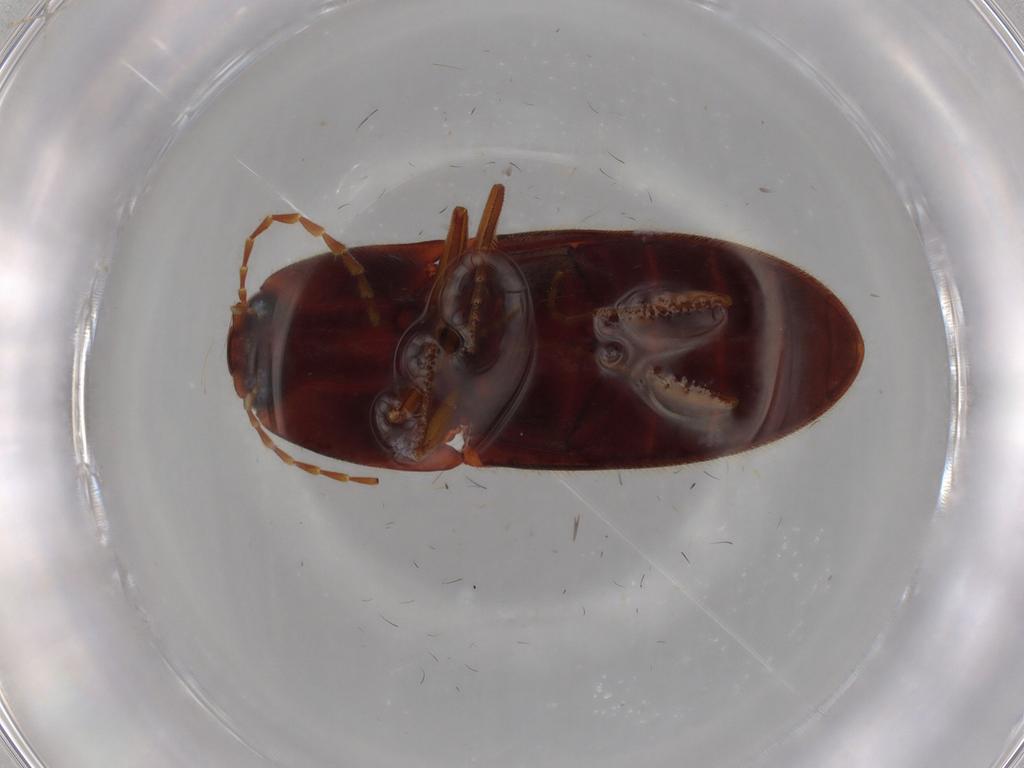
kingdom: Animalia
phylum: Arthropoda
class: Insecta
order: Coleoptera
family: Elateridae
